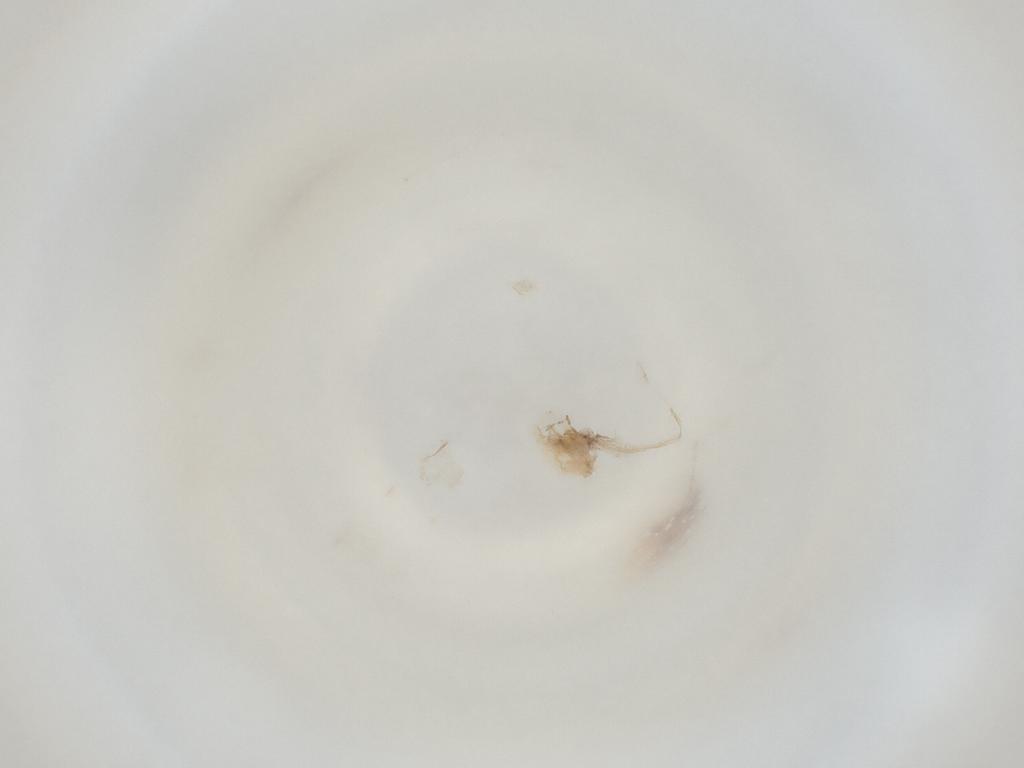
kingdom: Animalia
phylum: Arthropoda
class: Insecta
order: Diptera
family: Cecidomyiidae
